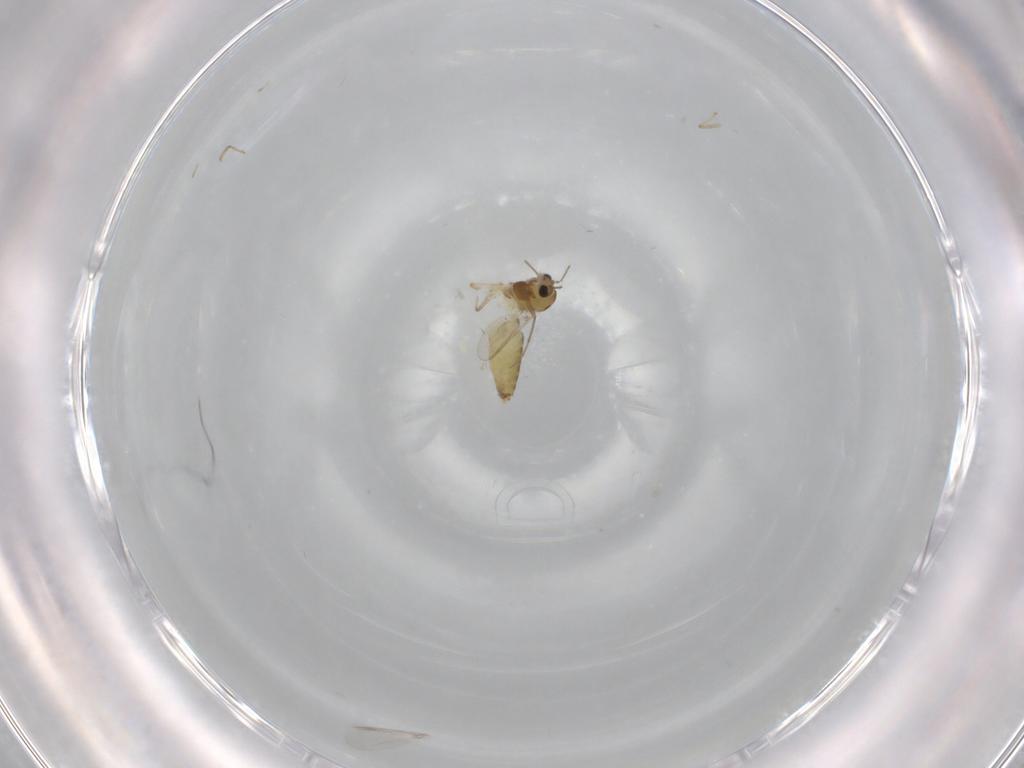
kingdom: Animalia
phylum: Arthropoda
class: Insecta
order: Diptera
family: Chironomidae
